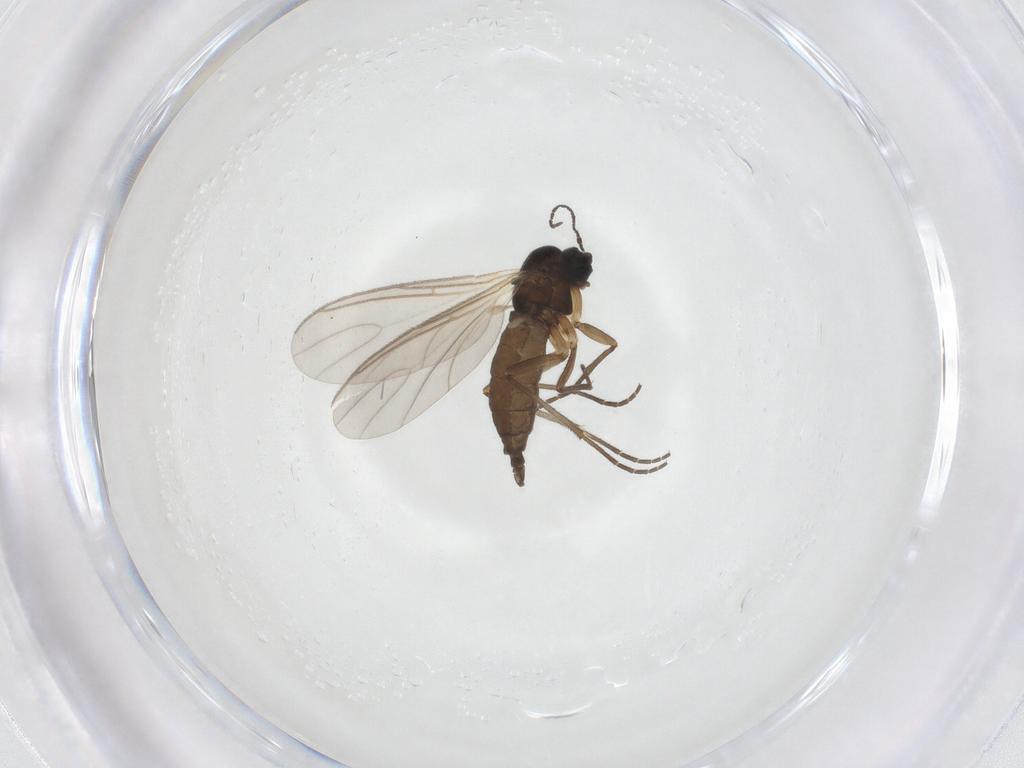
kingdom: Animalia
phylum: Arthropoda
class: Insecta
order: Diptera
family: Sciaridae
